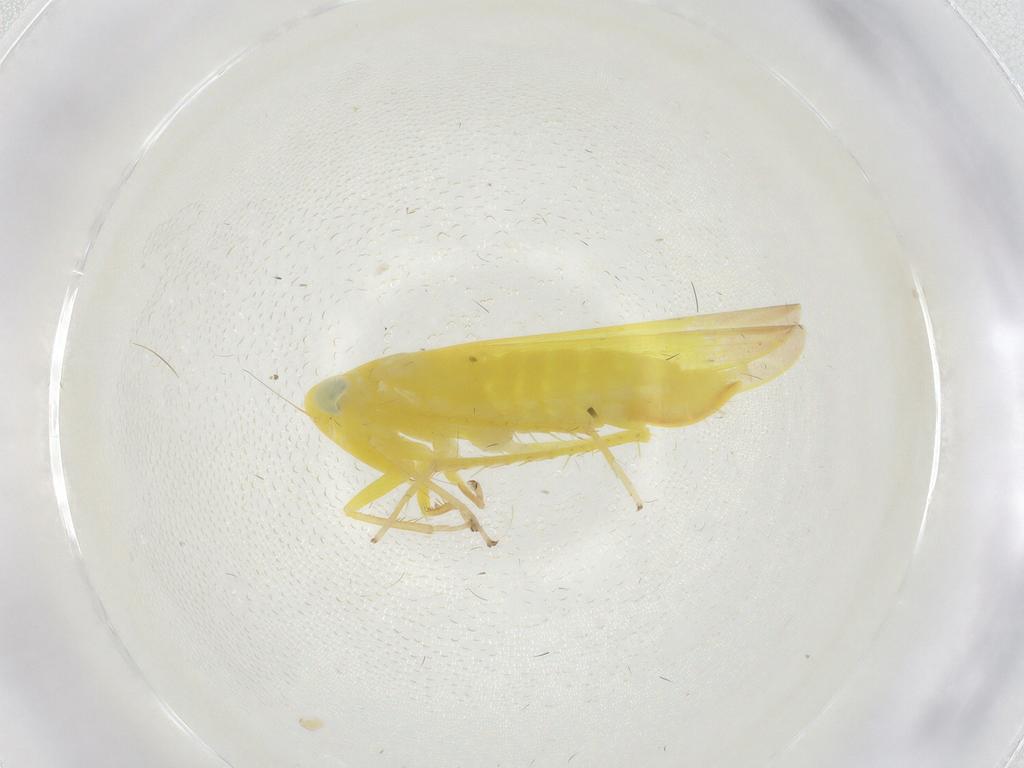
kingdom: Animalia
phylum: Arthropoda
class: Insecta
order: Hemiptera
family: Cicadellidae
